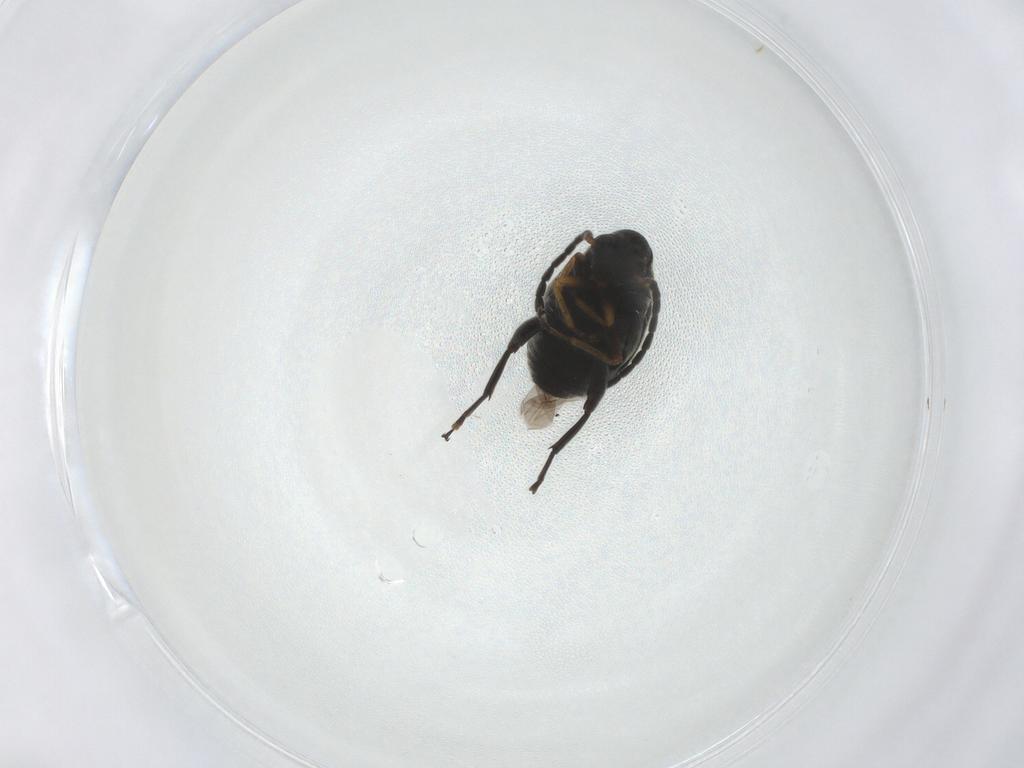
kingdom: Animalia
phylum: Arthropoda
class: Insecta
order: Coleoptera
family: Chrysomelidae
